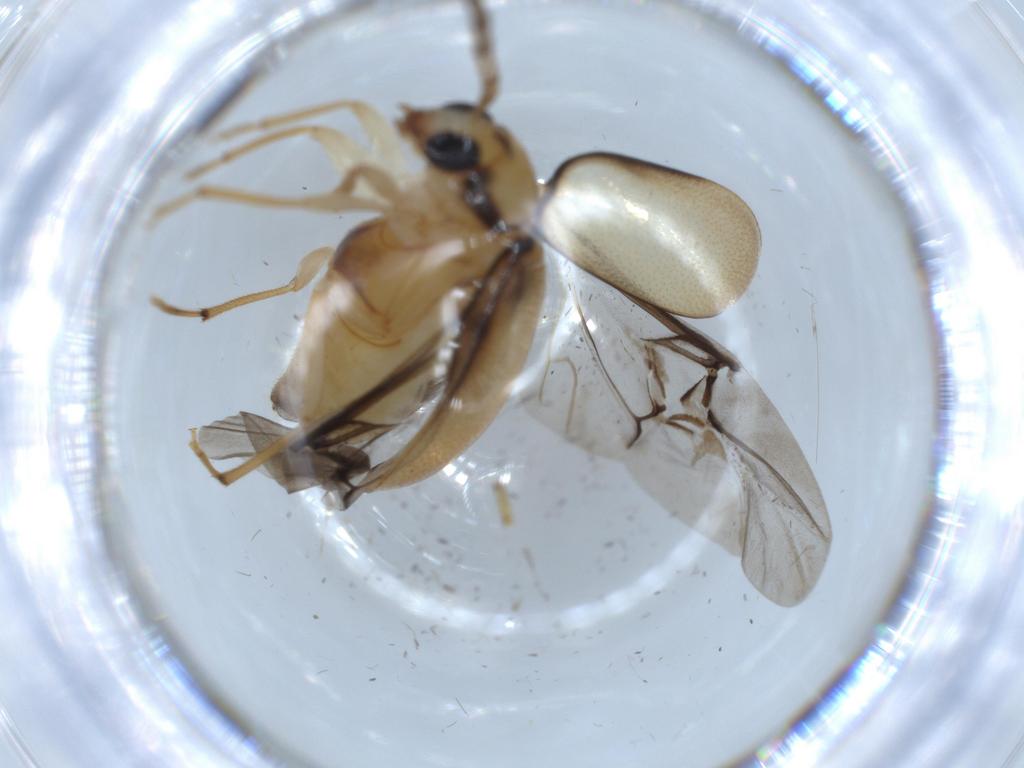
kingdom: Animalia
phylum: Arthropoda
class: Insecta
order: Coleoptera
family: Chrysomelidae
